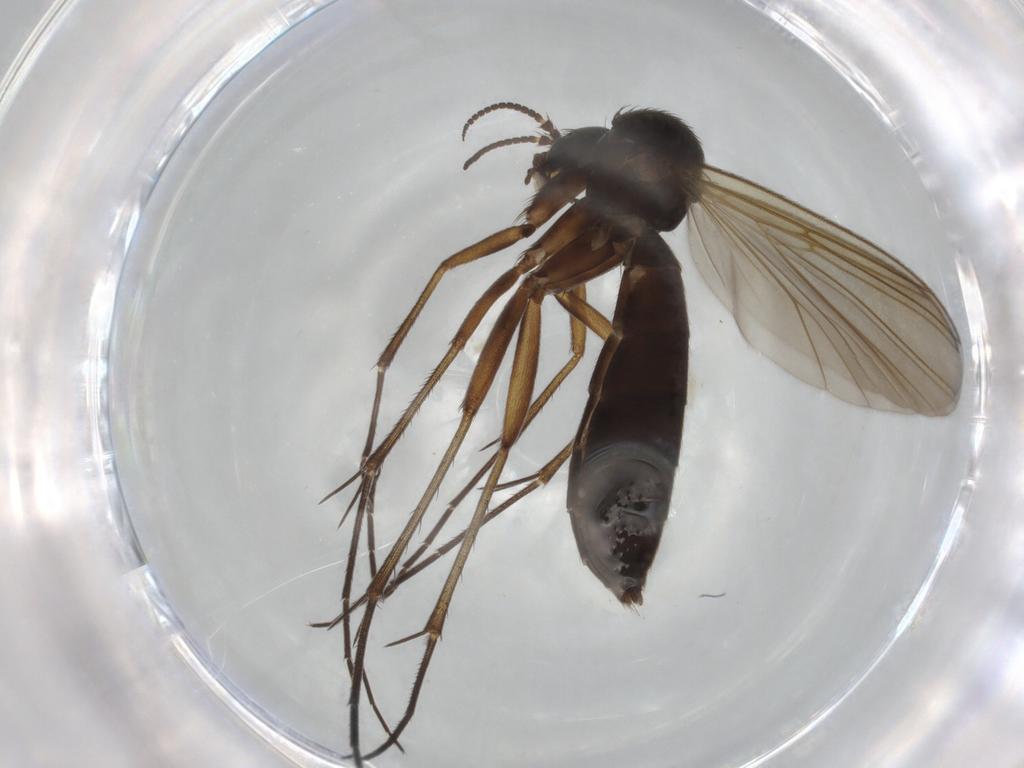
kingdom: Animalia
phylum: Arthropoda
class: Insecta
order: Diptera
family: Mycetophilidae
